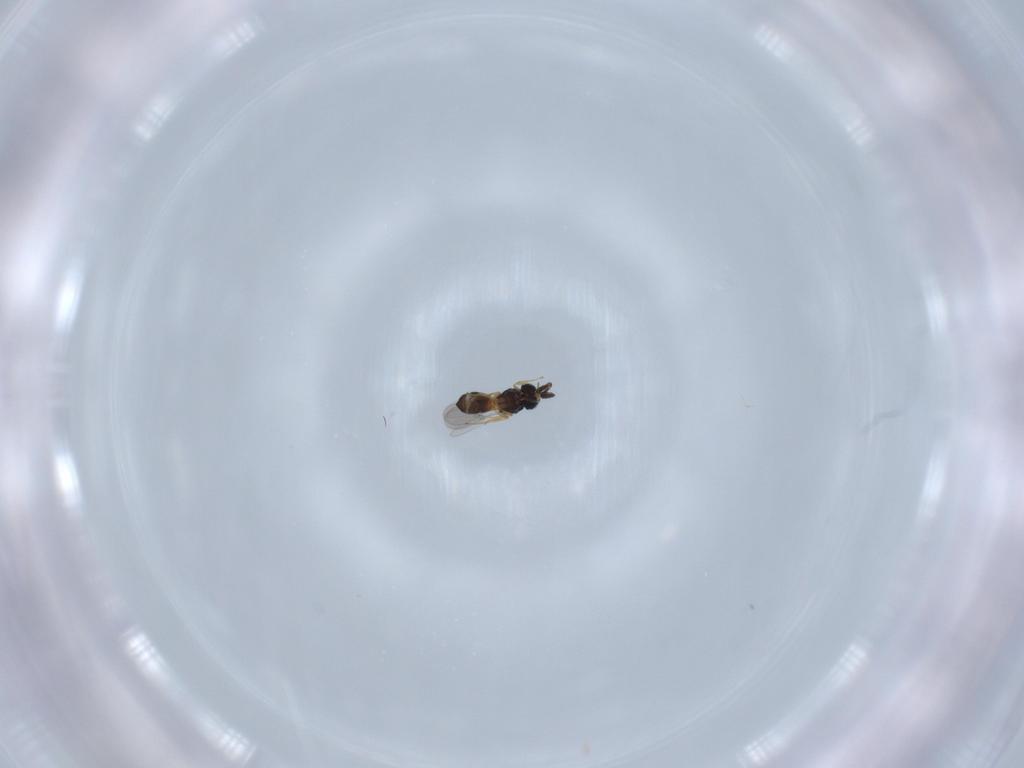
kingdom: Animalia
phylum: Arthropoda
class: Insecta
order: Hymenoptera
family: Scelionidae
